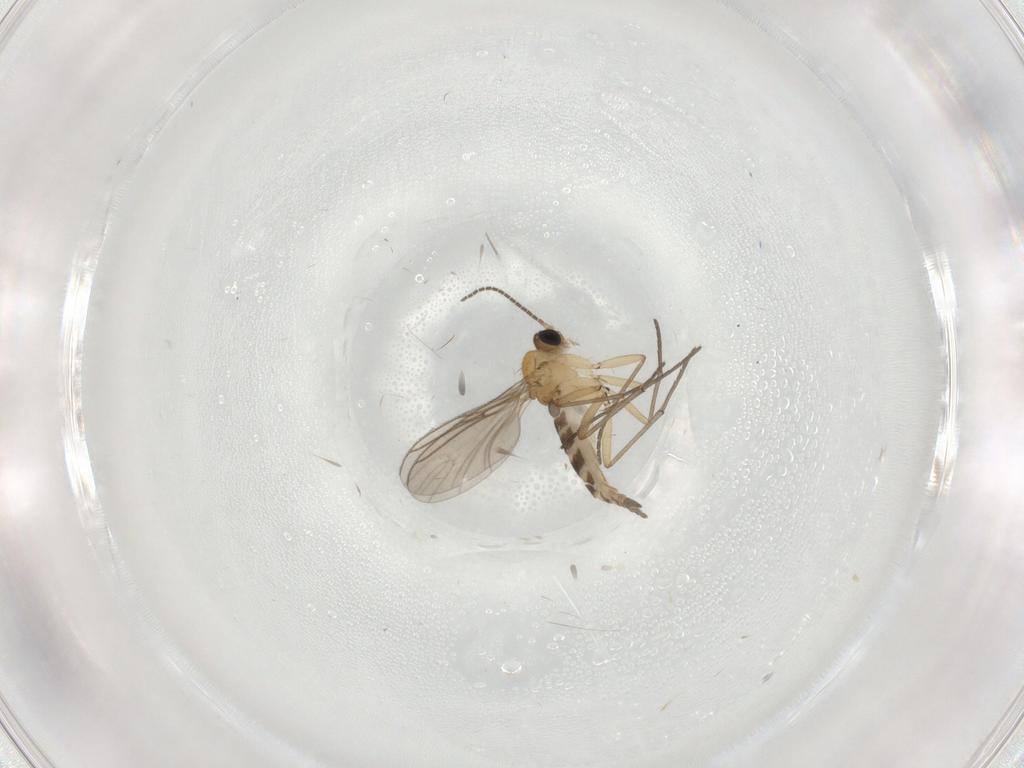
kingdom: Animalia
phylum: Arthropoda
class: Insecta
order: Diptera
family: Limoniidae
